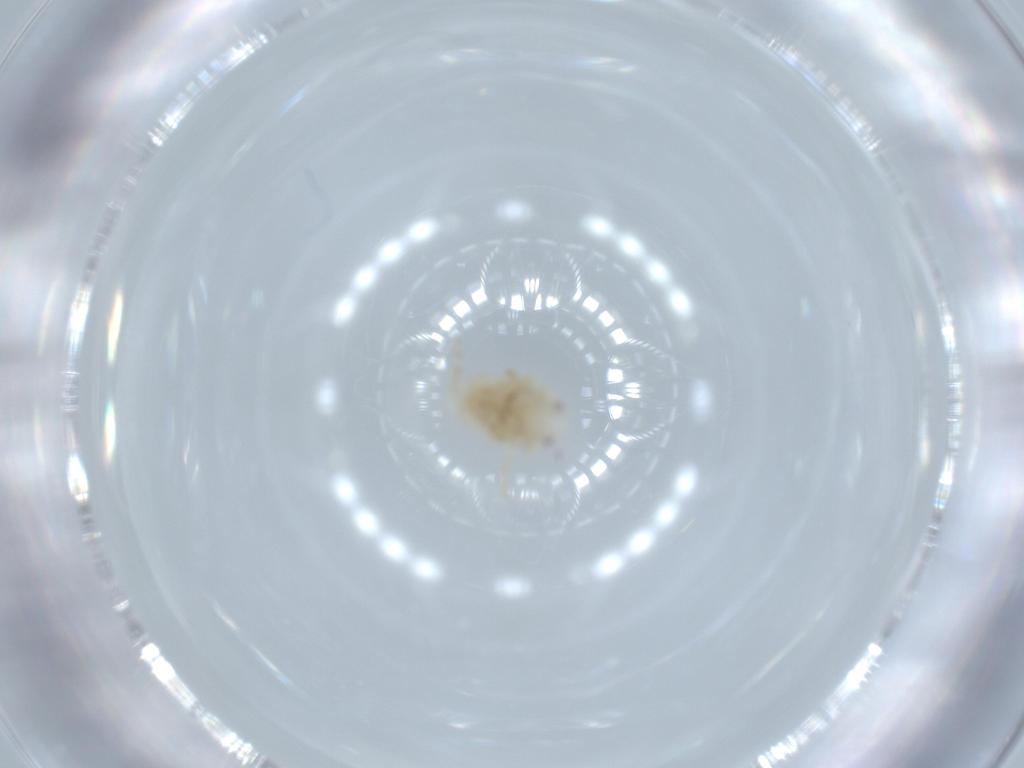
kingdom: Animalia
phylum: Arthropoda
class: Insecta
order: Hemiptera
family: Flatidae
